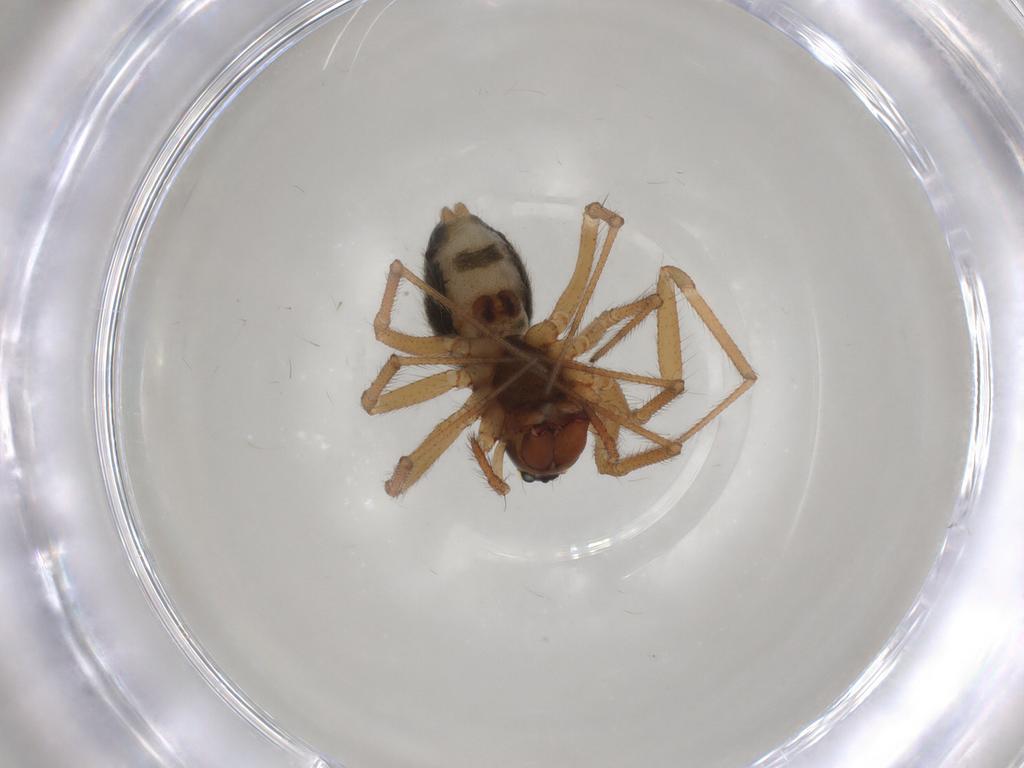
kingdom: Animalia
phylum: Arthropoda
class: Arachnida
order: Araneae
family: Linyphiidae
